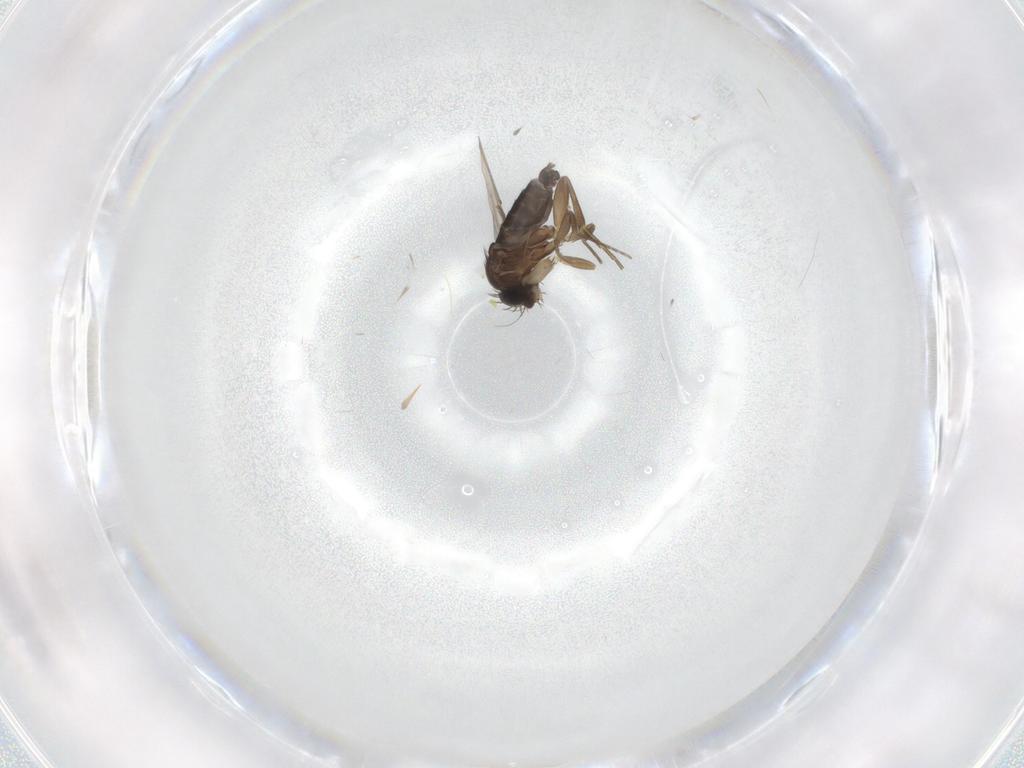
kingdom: Animalia
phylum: Arthropoda
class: Insecta
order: Diptera
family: Phoridae
